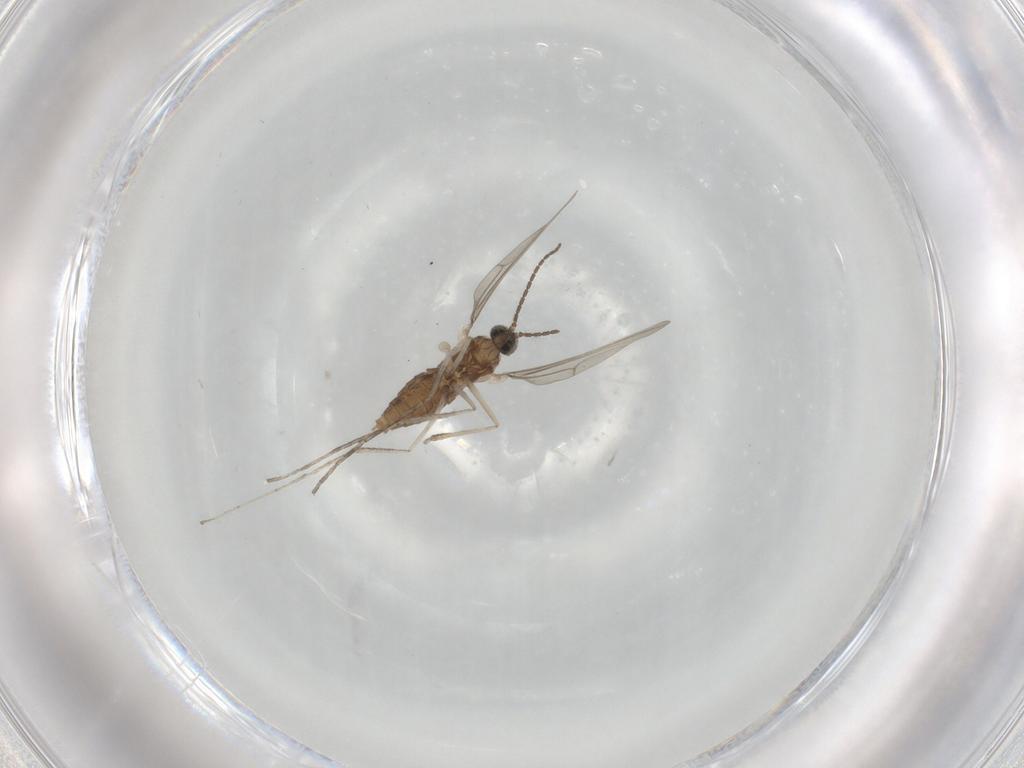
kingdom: Animalia
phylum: Arthropoda
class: Insecta
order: Diptera
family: Cecidomyiidae
